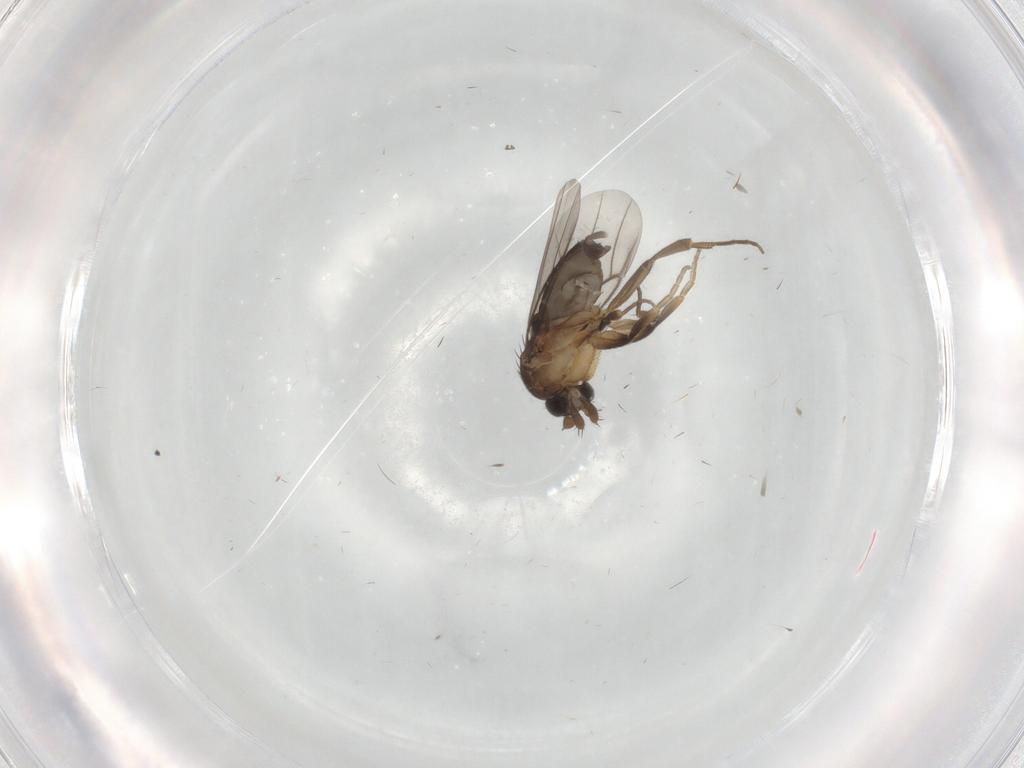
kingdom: Animalia
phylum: Arthropoda
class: Insecta
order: Diptera
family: Phoridae
